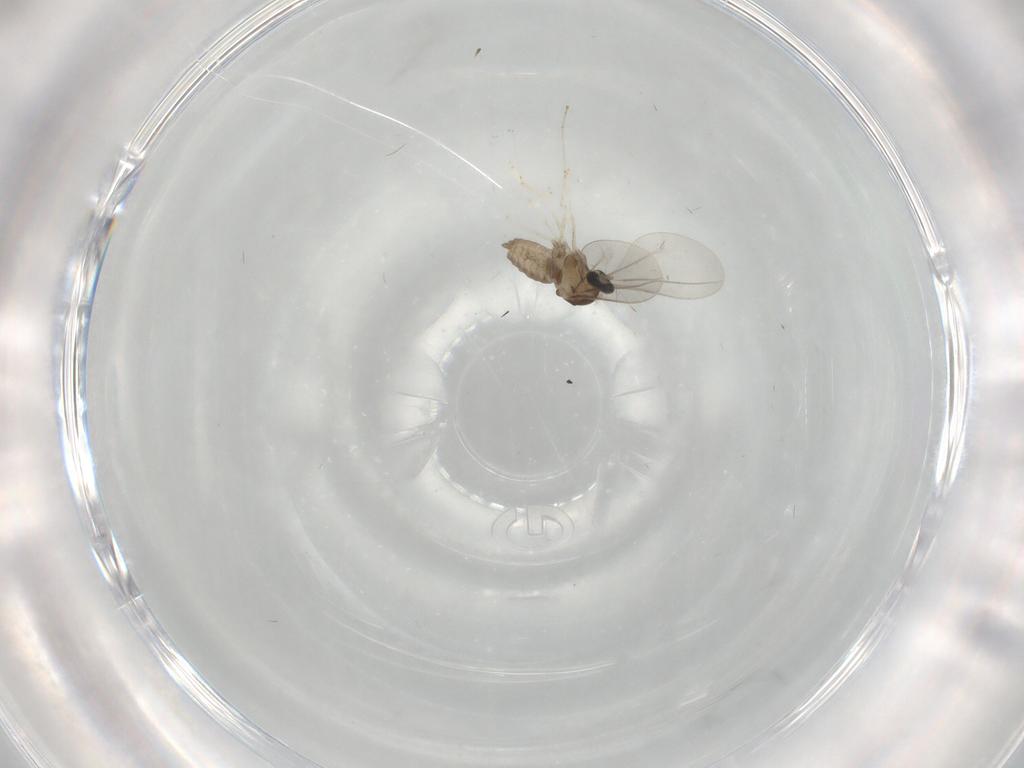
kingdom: Animalia
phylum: Arthropoda
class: Insecta
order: Diptera
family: Cecidomyiidae
